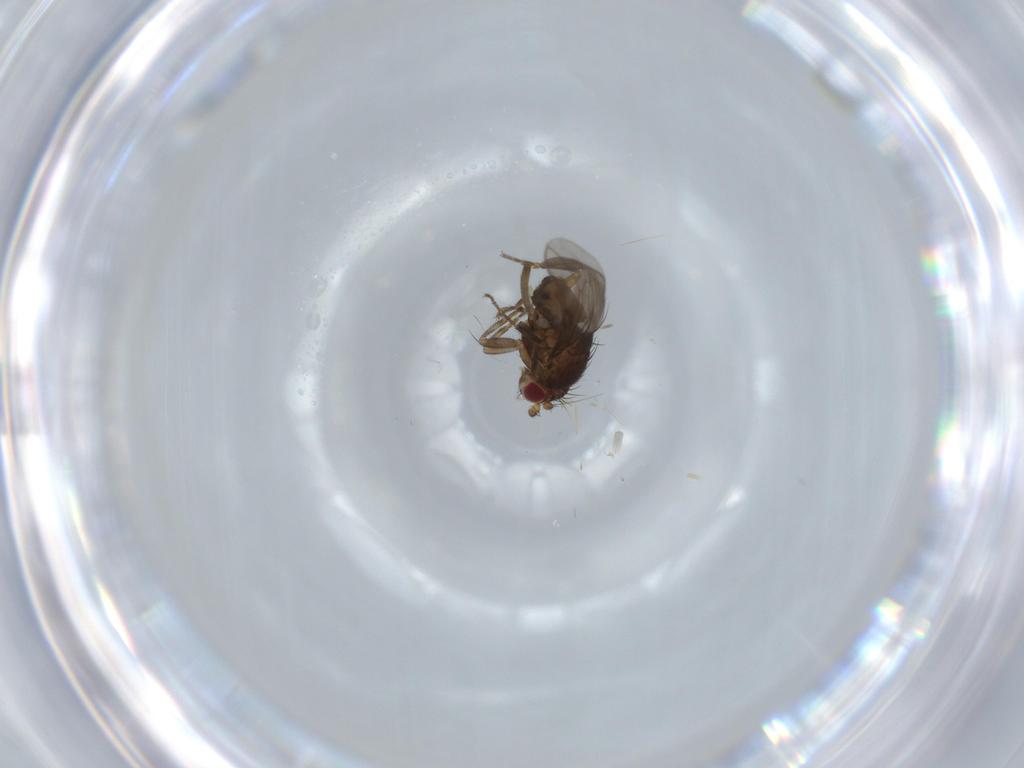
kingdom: Animalia
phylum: Arthropoda
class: Insecta
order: Diptera
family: Sphaeroceridae
